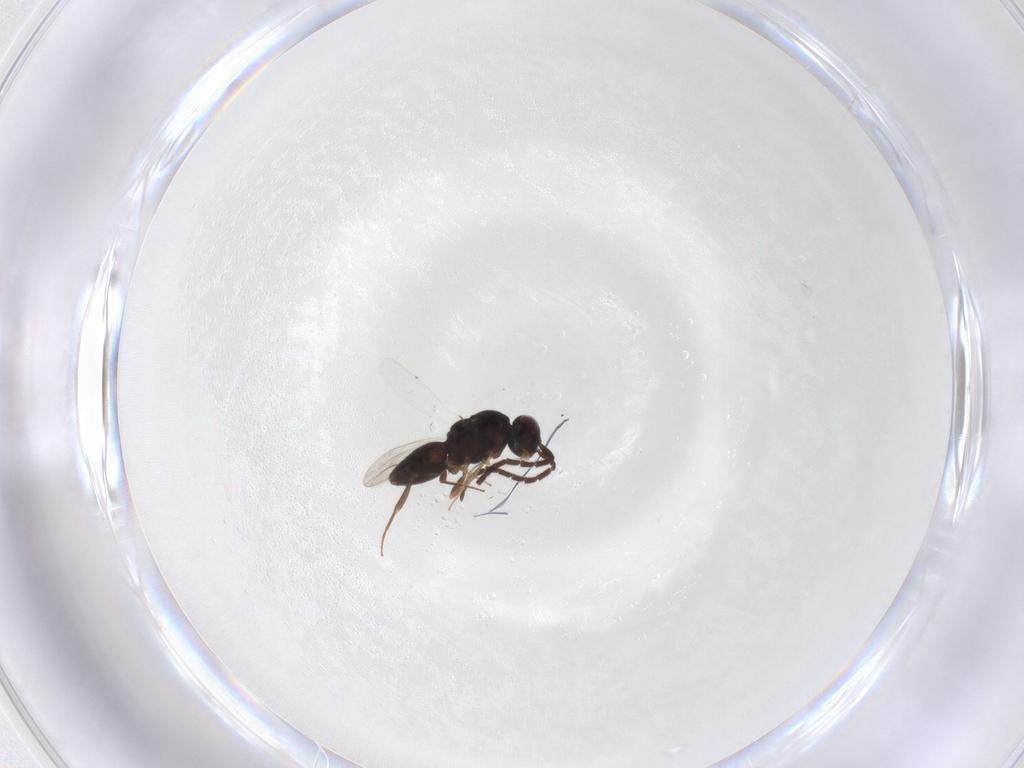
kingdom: Animalia
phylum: Arthropoda
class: Insecta
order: Hymenoptera
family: Megaspilidae
